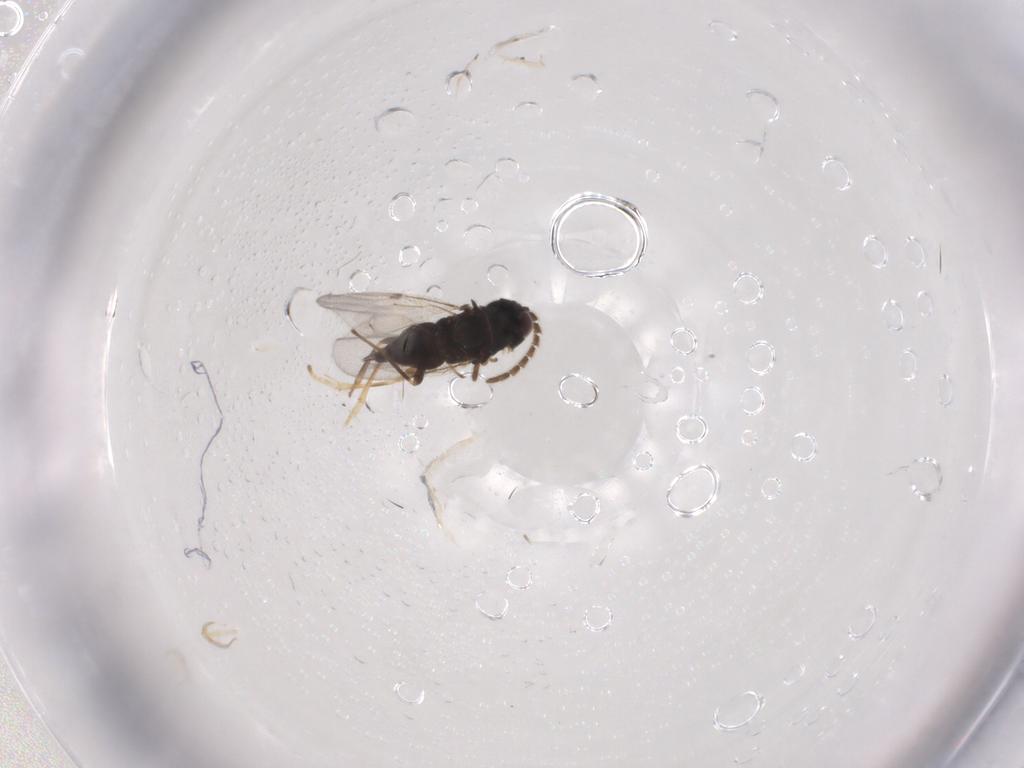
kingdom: Animalia
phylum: Arthropoda
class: Insecta
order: Hymenoptera
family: Encyrtidae
